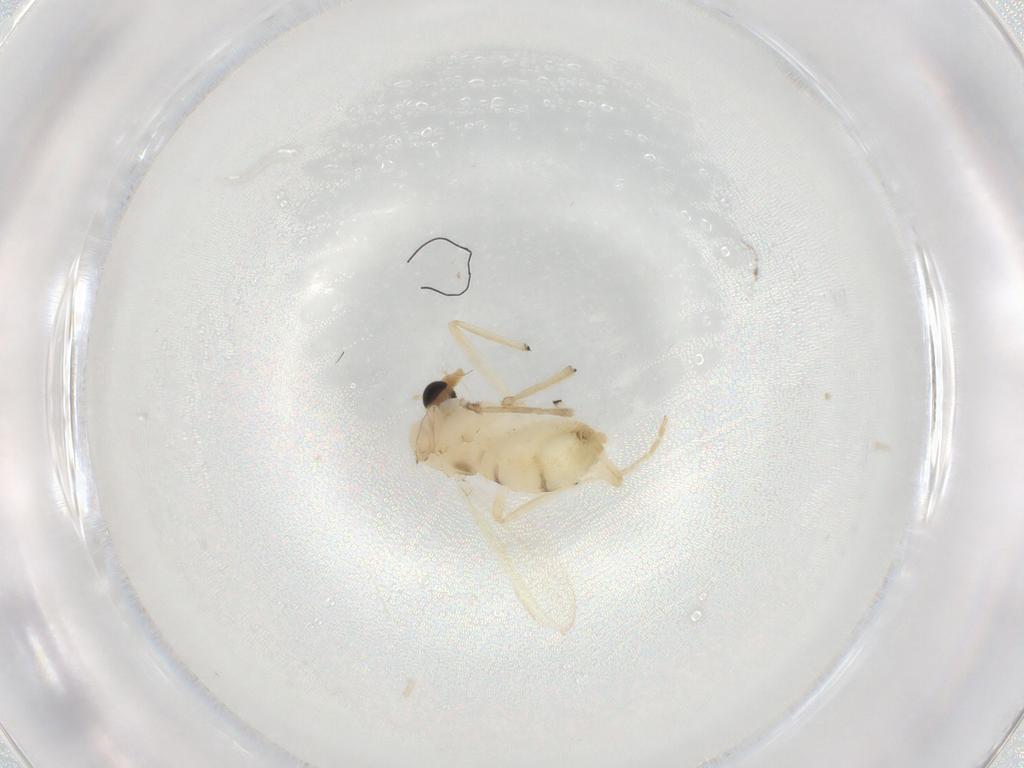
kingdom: Animalia
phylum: Arthropoda
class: Insecta
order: Diptera
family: Chironomidae
